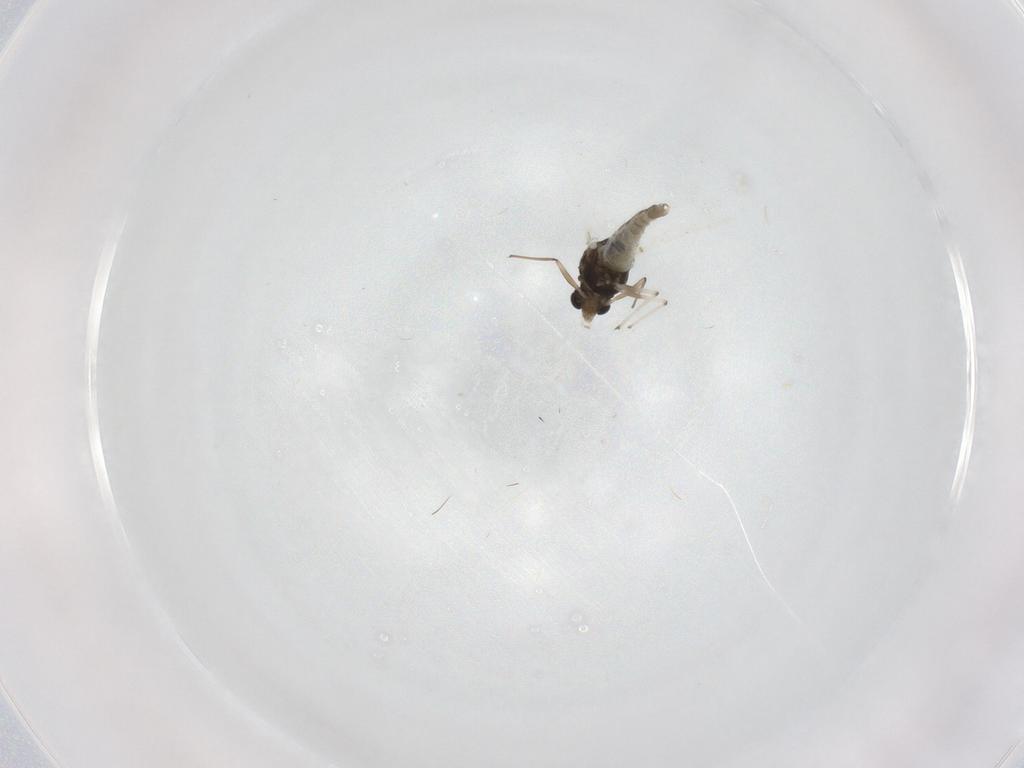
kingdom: Animalia
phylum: Arthropoda
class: Insecta
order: Diptera
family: Chironomidae
